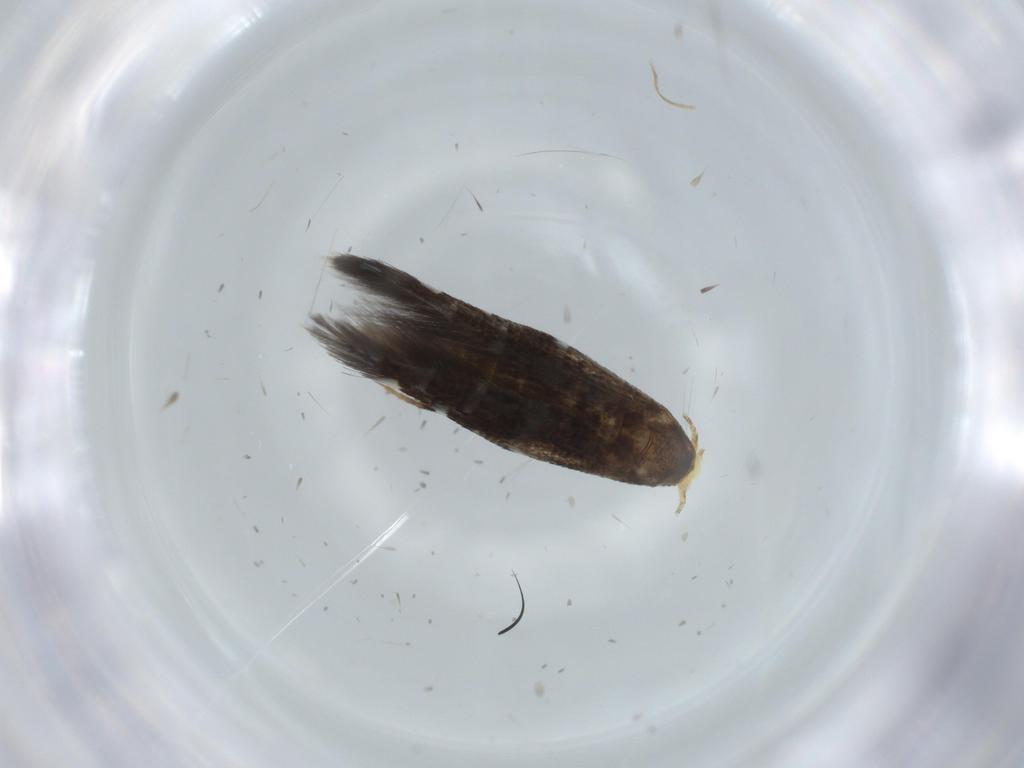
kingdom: Animalia
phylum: Arthropoda
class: Insecta
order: Lepidoptera
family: Cosmopterigidae
